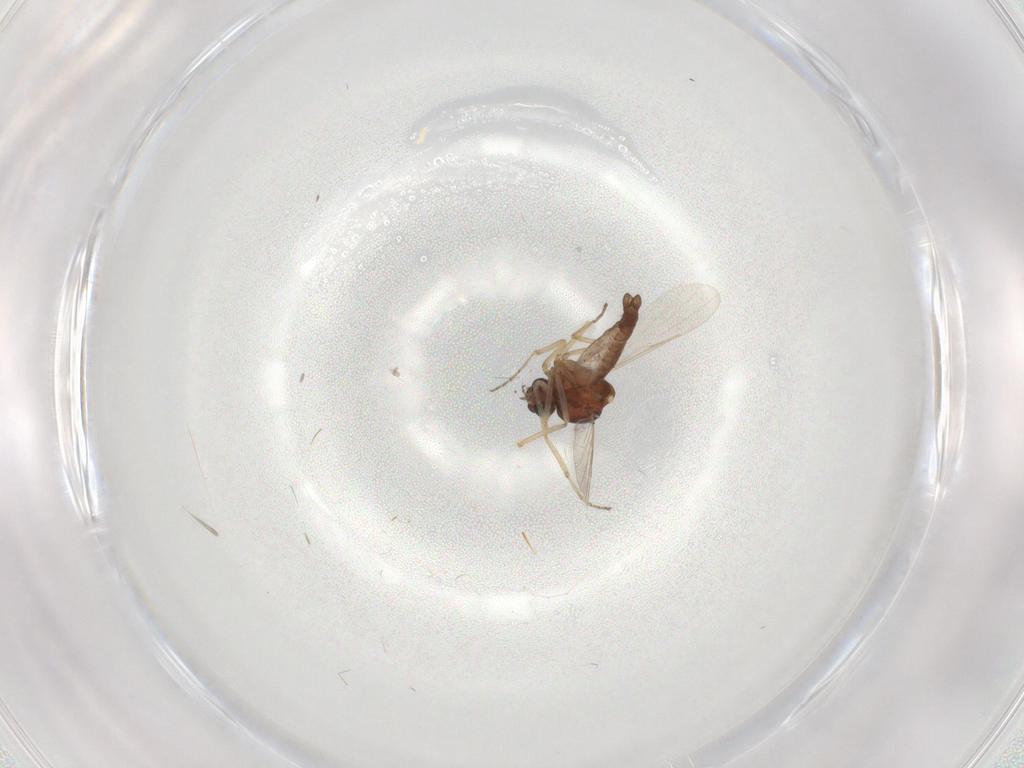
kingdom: Animalia
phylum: Arthropoda
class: Insecta
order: Diptera
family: Ceratopogonidae
